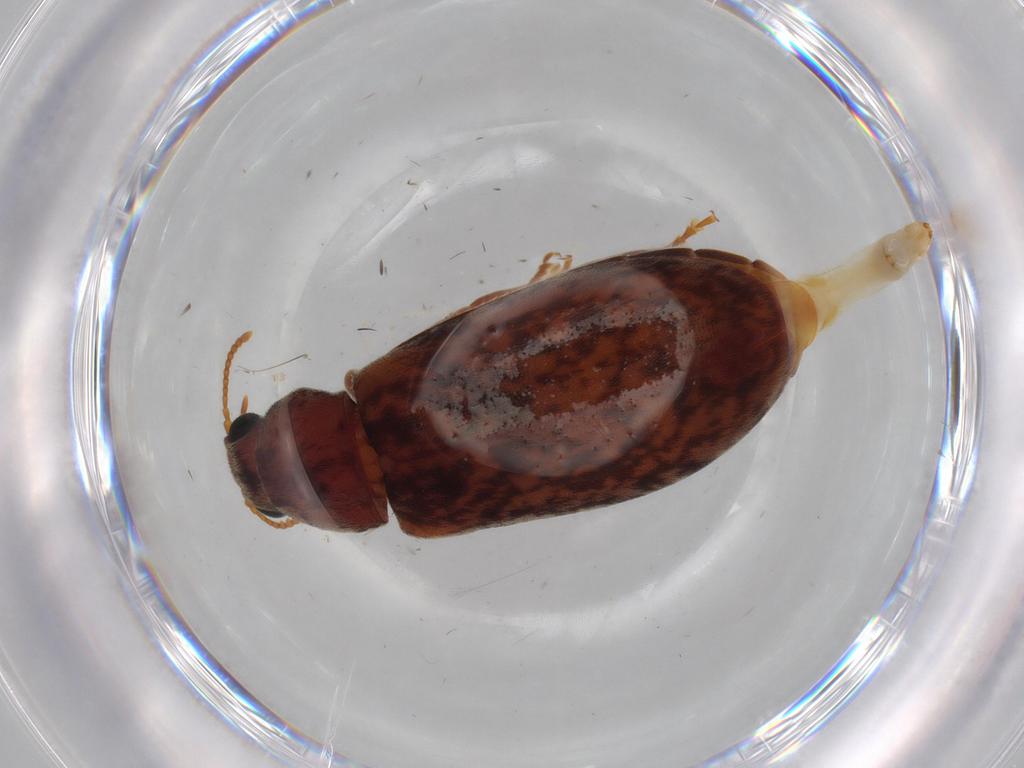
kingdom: Animalia
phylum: Arthropoda
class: Insecta
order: Coleoptera
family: Mycteridae
